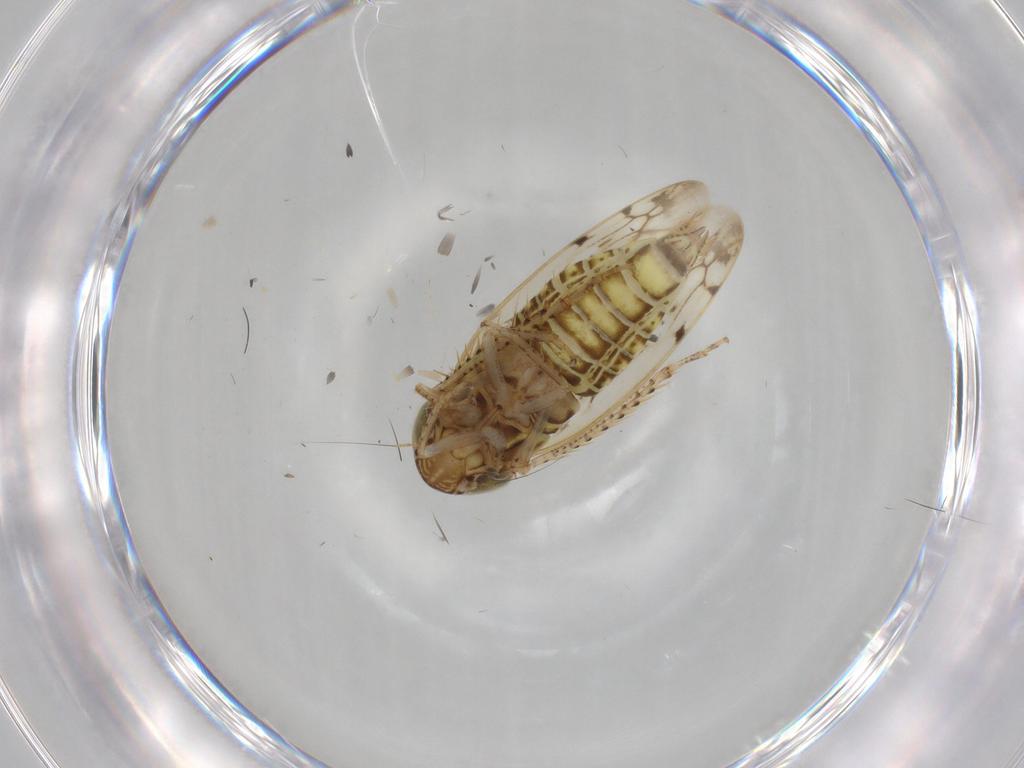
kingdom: Animalia
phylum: Arthropoda
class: Insecta
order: Hemiptera
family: Cicadellidae
